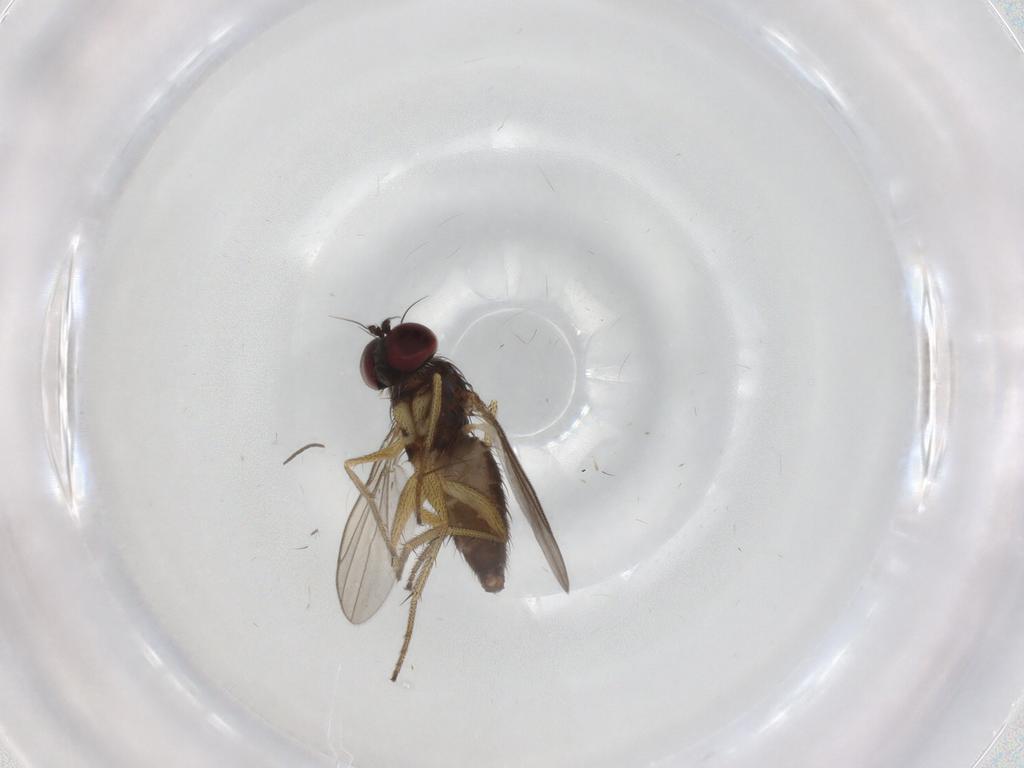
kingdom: Animalia
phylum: Arthropoda
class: Insecta
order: Diptera
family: Dolichopodidae
